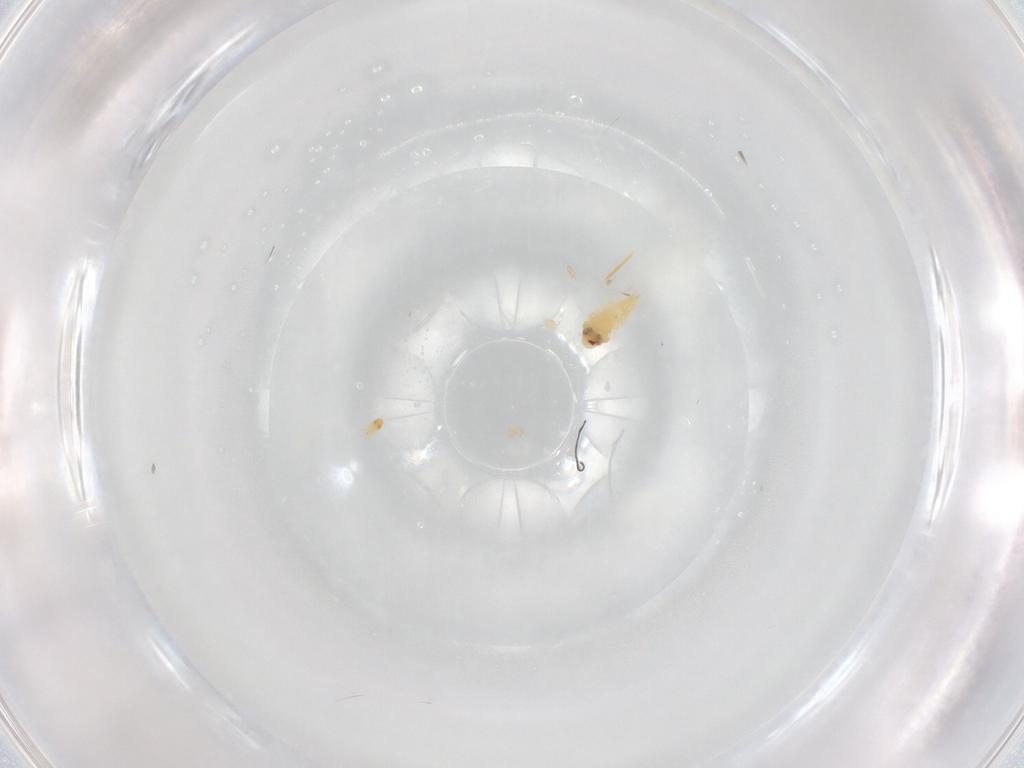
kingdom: Animalia
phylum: Arthropoda
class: Insecta
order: Hemiptera
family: Aleyrodidae
